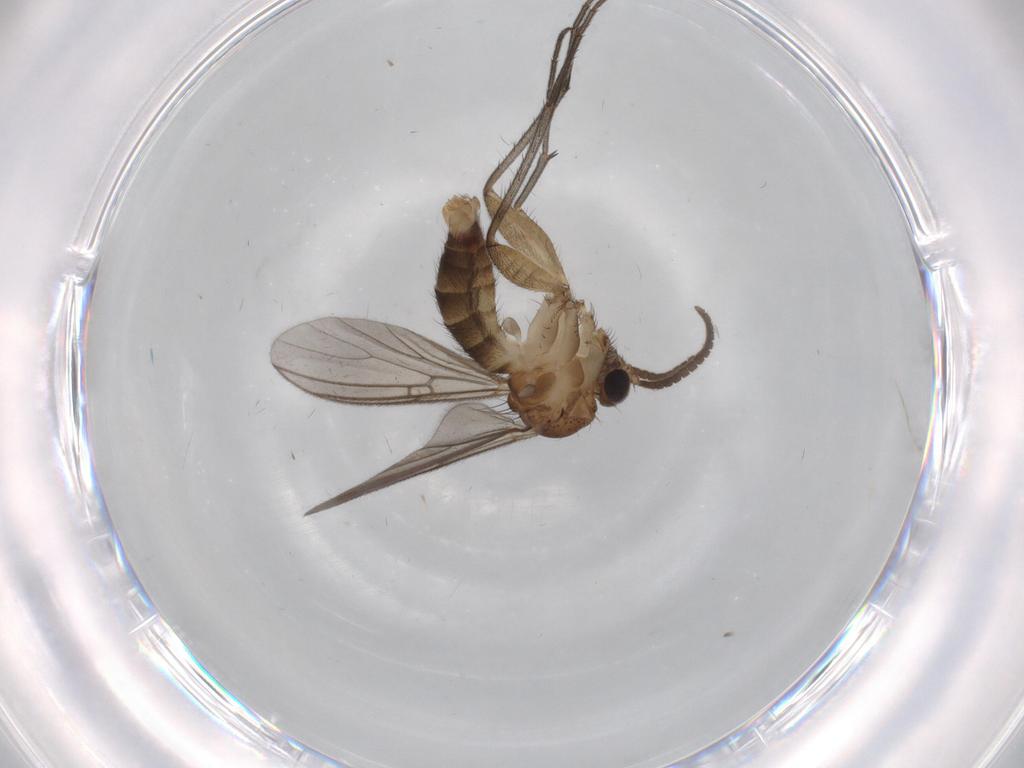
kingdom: Animalia
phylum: Arthropoda
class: Insecta
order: Diptera
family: Mycetophilidae
